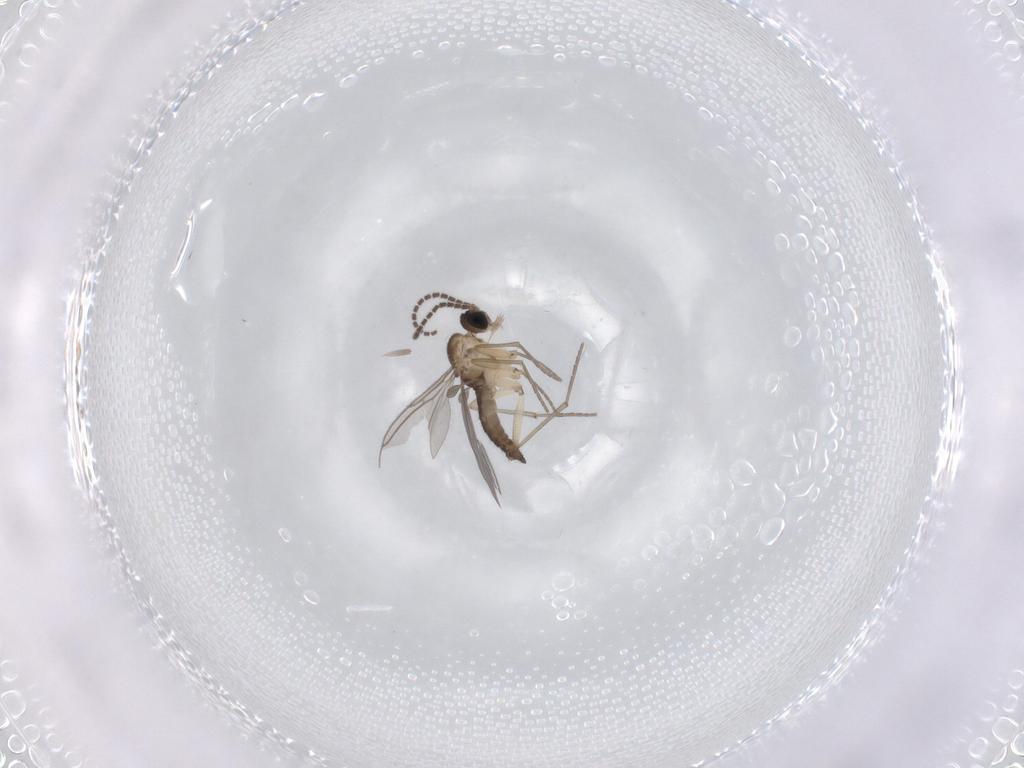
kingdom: Animalia
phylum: Arthropoda
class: Insecta
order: Diptera
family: Sciaridae
